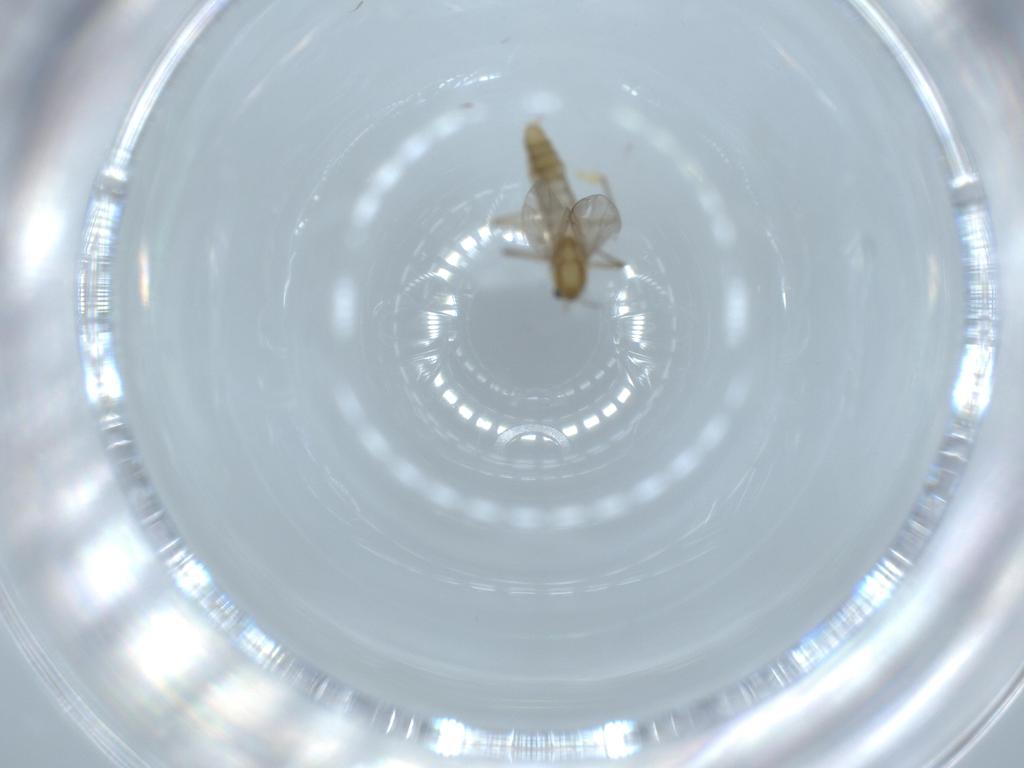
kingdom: Animalia
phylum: Arthropoda
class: Insecta
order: Diptera
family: Chironomidae
